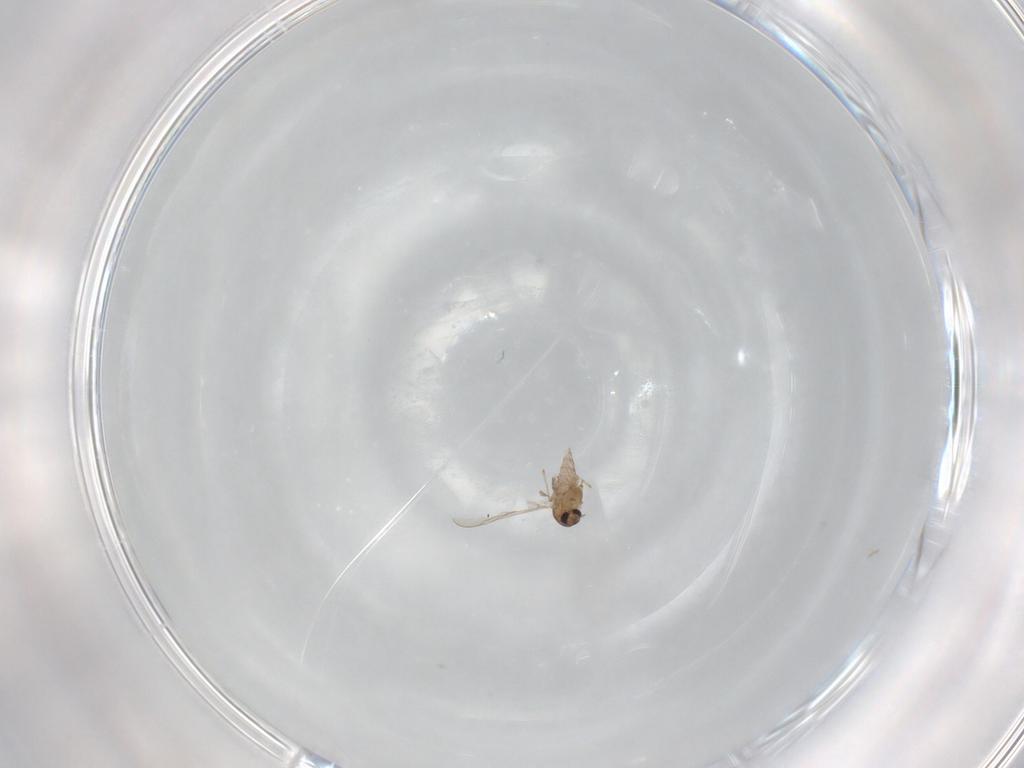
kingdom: Animalia
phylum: Arthropoda
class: Insecta
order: Diptera
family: Chironomidae
